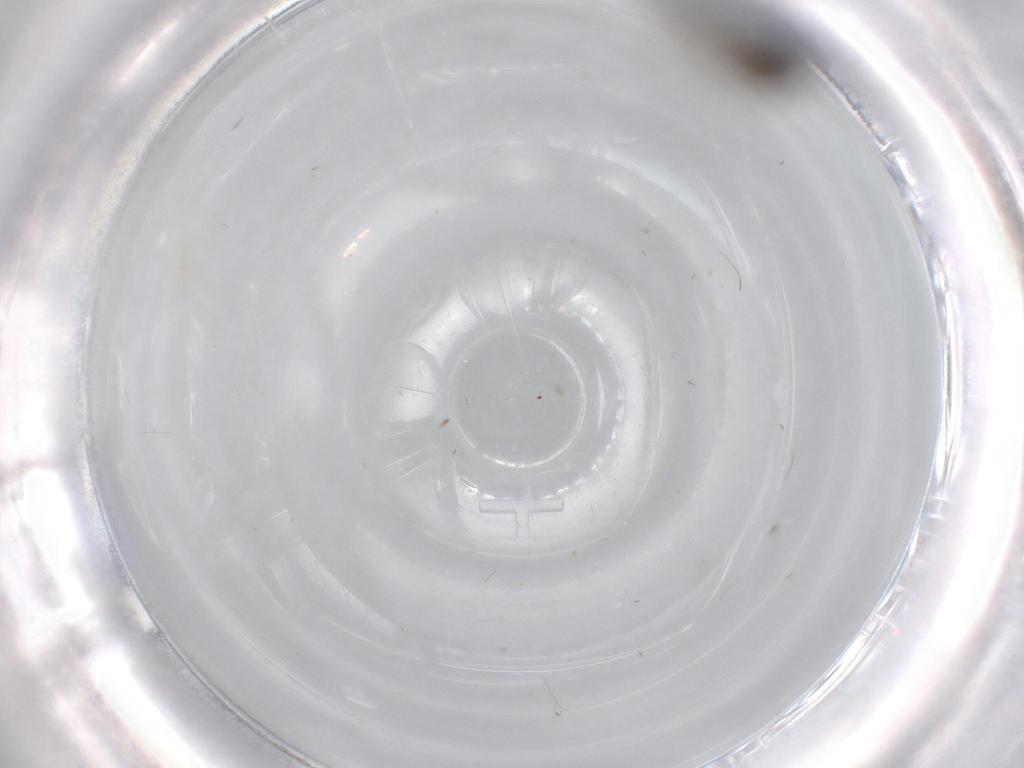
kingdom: Animalia
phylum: Arthropoda
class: Insecta
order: Diptera
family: Sciaridae
